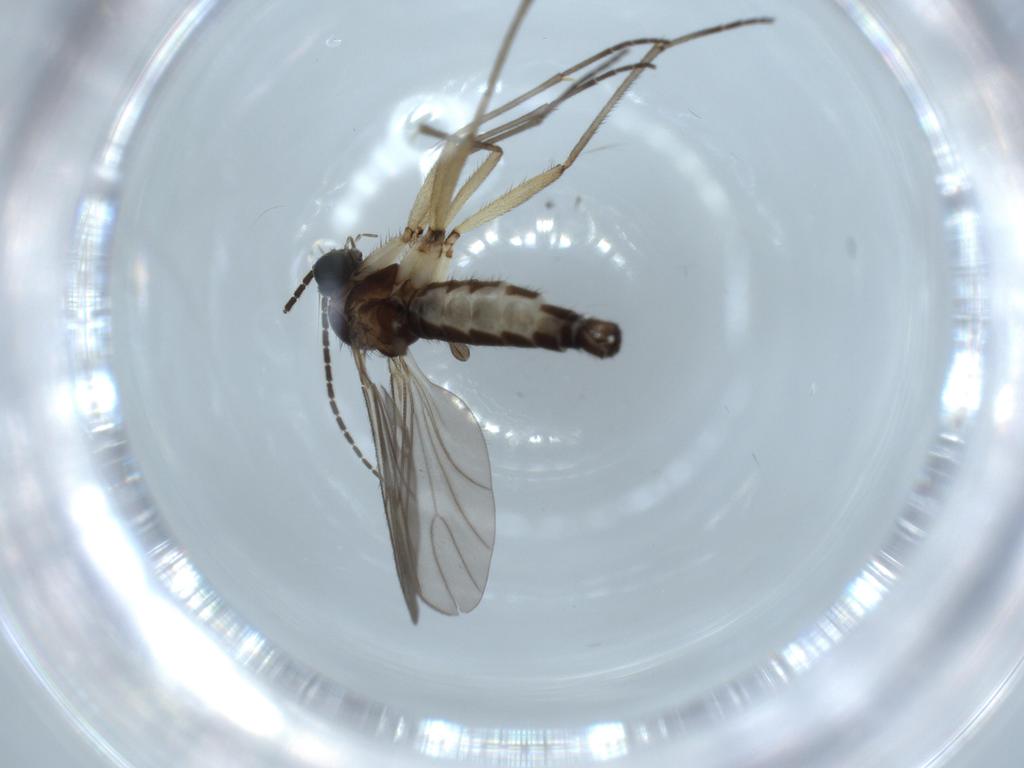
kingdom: Animalia
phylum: Arthropoda
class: Insecta
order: Diptera
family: Sciaridae
